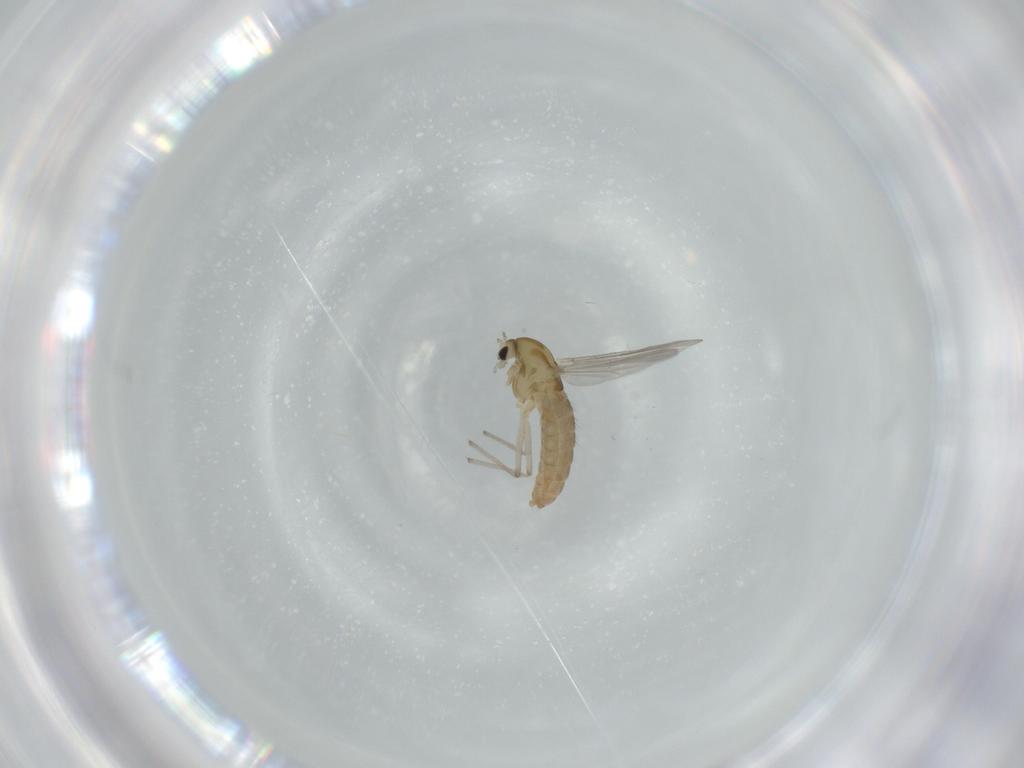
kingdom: Animalia
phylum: Arthropoda
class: Insecta
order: Diptera
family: Chironomidae
